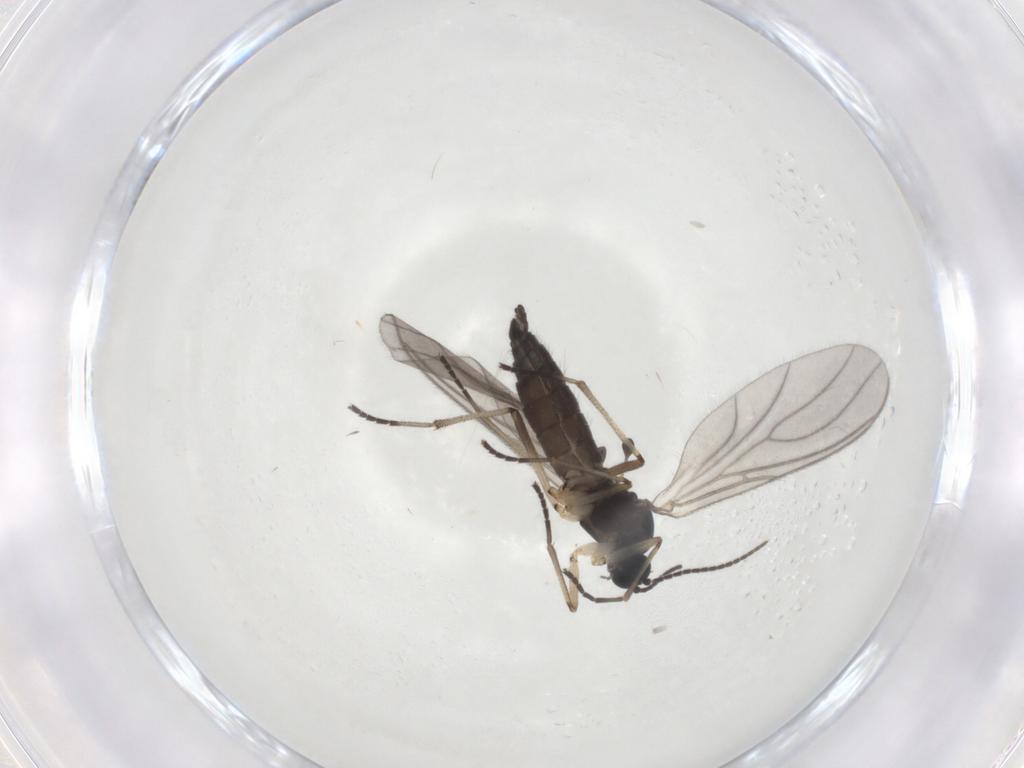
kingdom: Animalia
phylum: Arthropoda
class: Insecta
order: Diptera
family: Sciaridae
